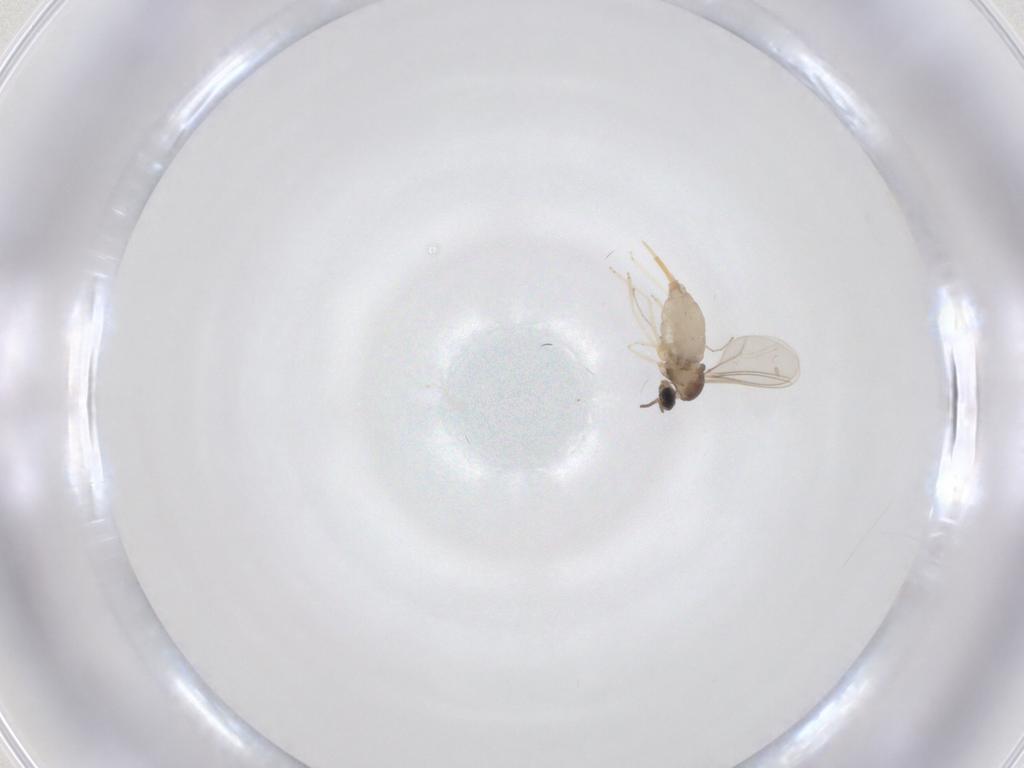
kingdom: Animalia
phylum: Arthropoda
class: Insecta
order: Diptera
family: Cecidomyiidae
